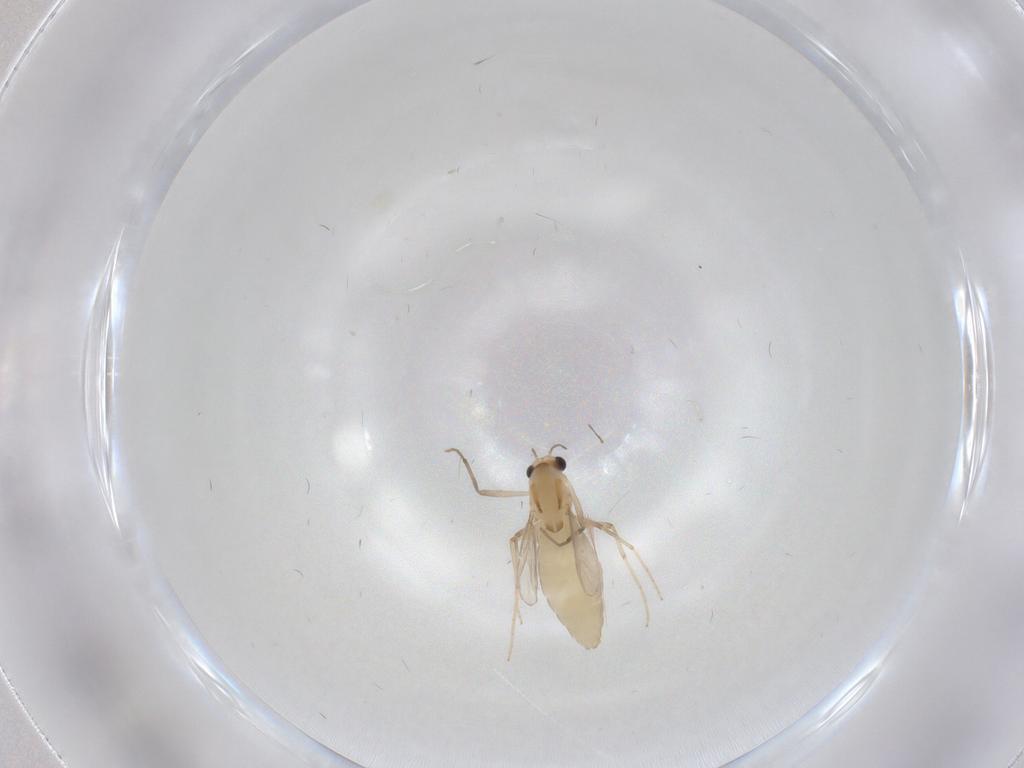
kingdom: Animalia
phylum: Arthropoda
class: Insecta
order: Diptera
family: Chironomidae
